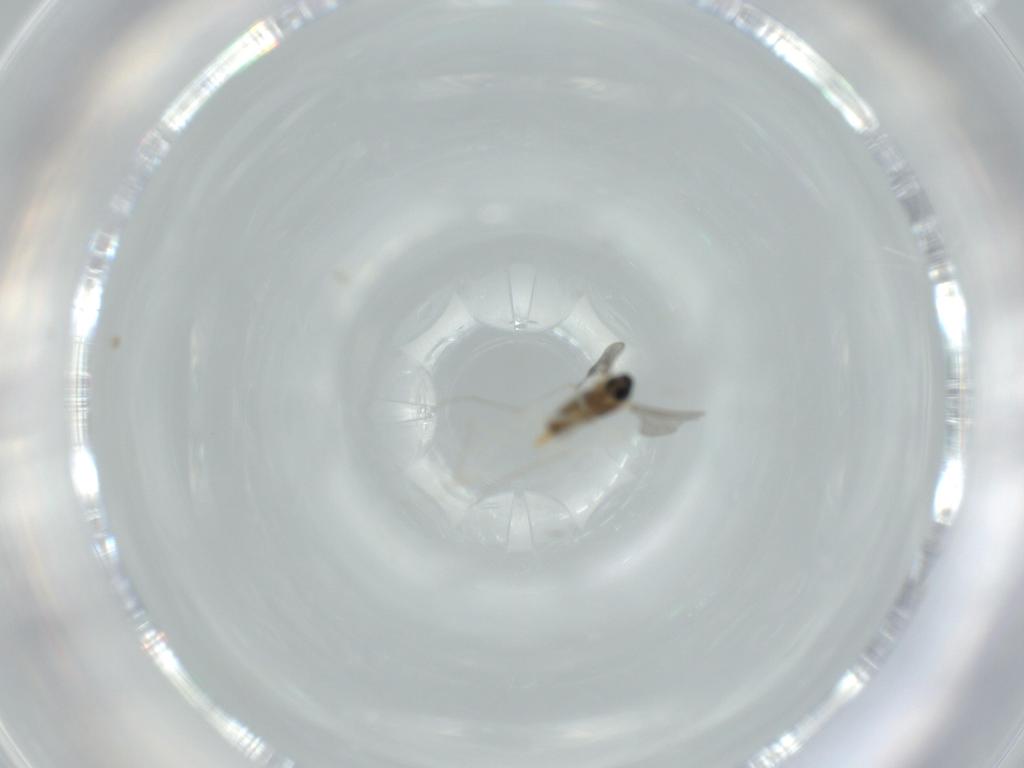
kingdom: Animalia
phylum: Arthropoda
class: Insecta
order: Diptera
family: Cecidomyiidae
